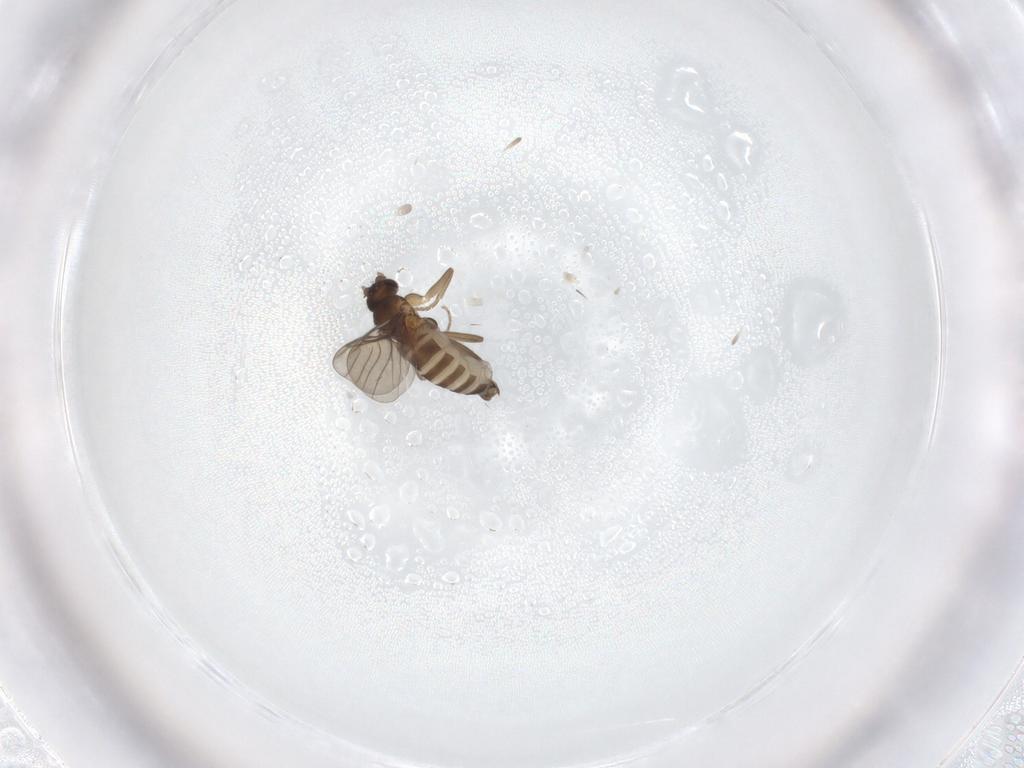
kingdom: Animalia
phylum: Arthropoda
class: Insecta
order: Diptera
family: Phoridae
